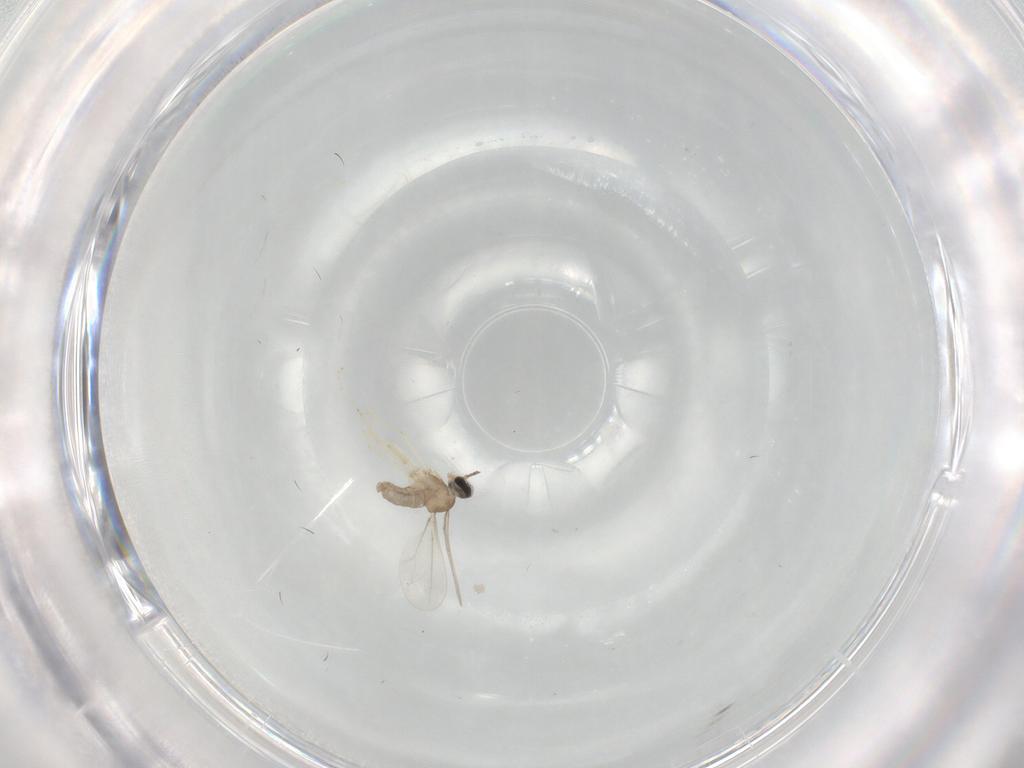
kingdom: Animalia
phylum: Arthropoda
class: Insecta
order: Diptera
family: Cecidomyiidae
